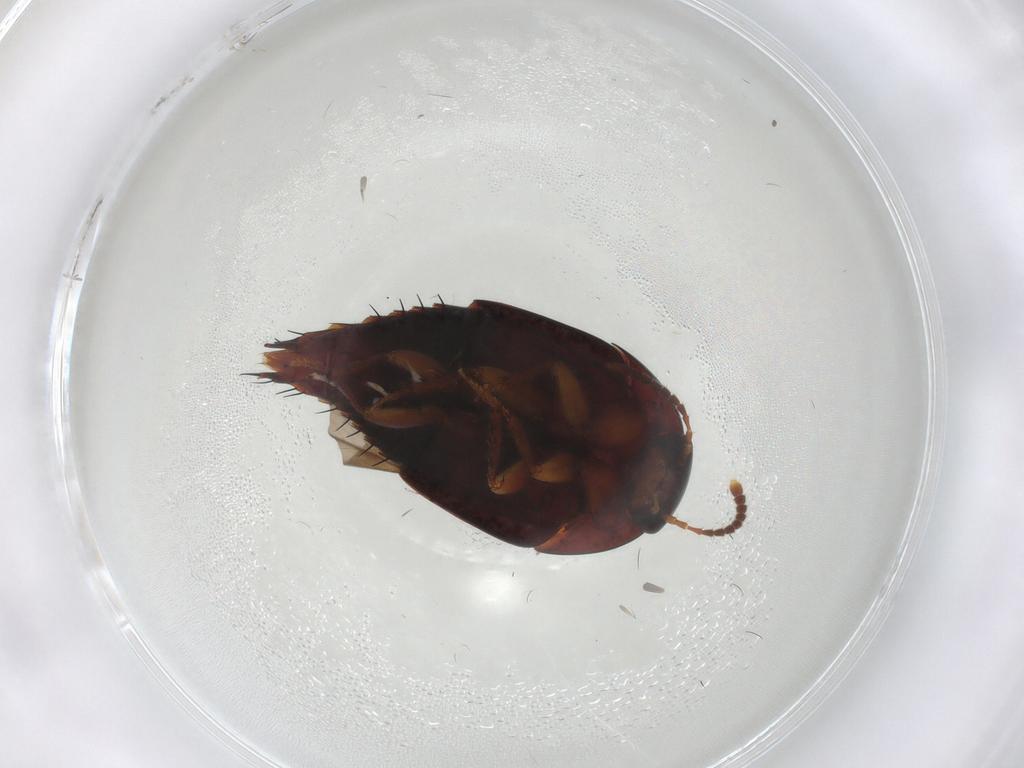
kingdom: Animalia
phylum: Arthropoda
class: Insecta
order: Coleoptera
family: Staphylinidae
